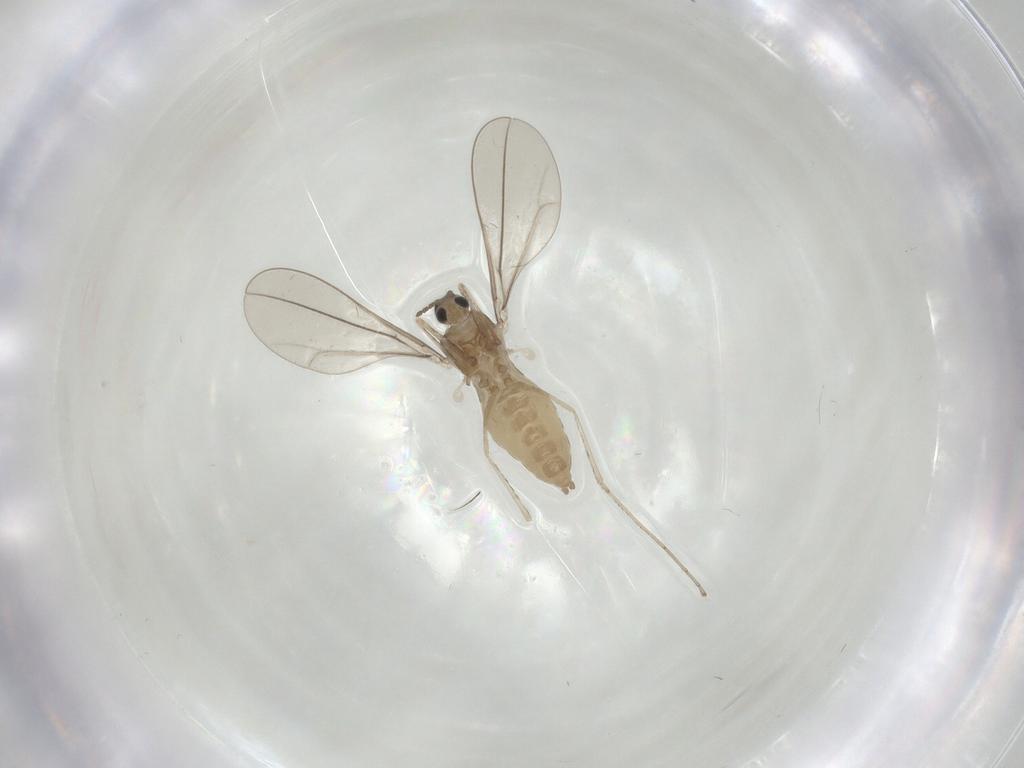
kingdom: Animalia
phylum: Arthropoda
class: Insecta
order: Diptera
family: Cecidomyiidae
